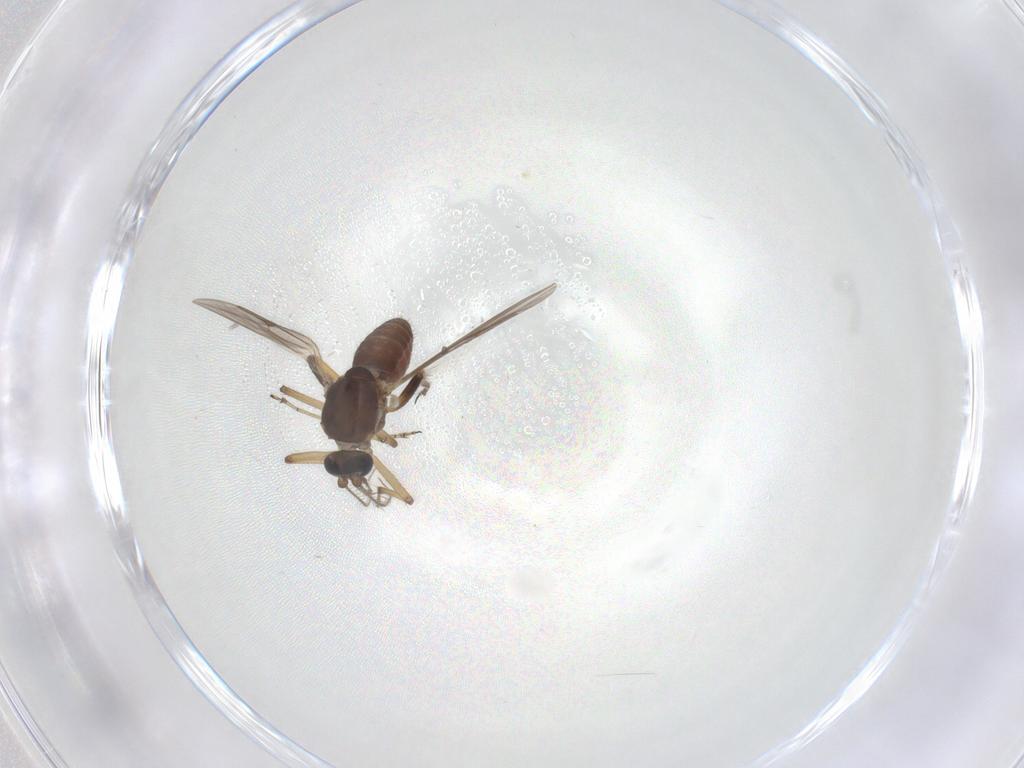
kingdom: Animalia
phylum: Arthropoda
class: Insecta
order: Diptera
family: Ceratopogonidae
